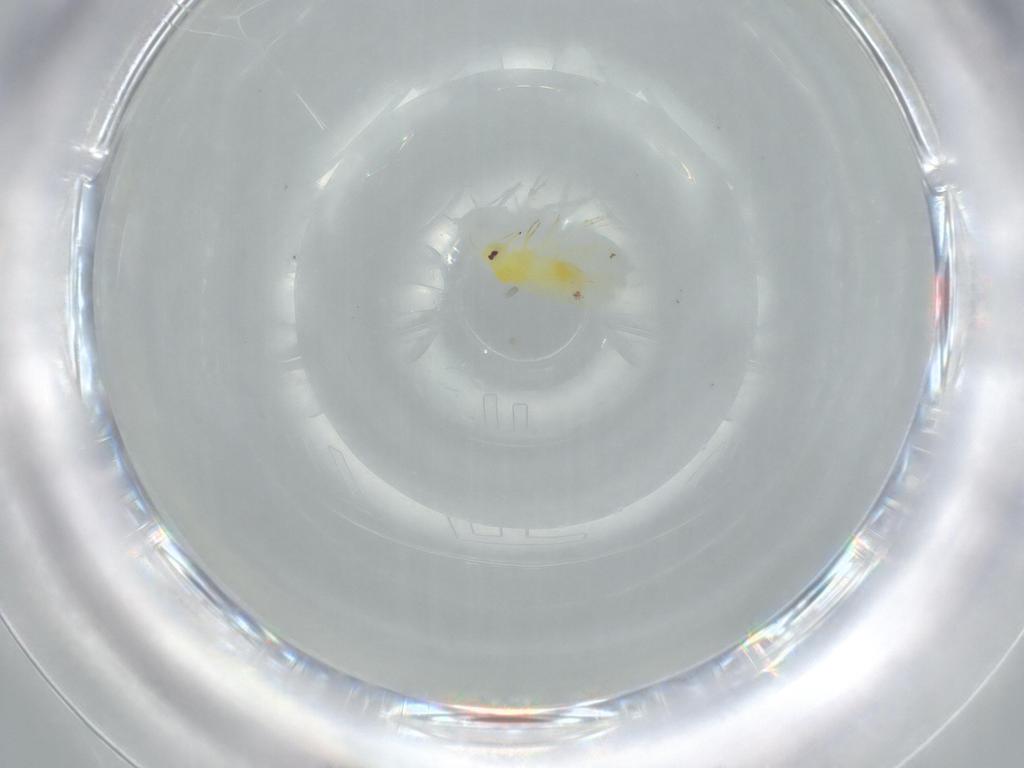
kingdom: Animalia
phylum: Arthropoda
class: Insecta
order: Hemiptera
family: Aleyrodidae
